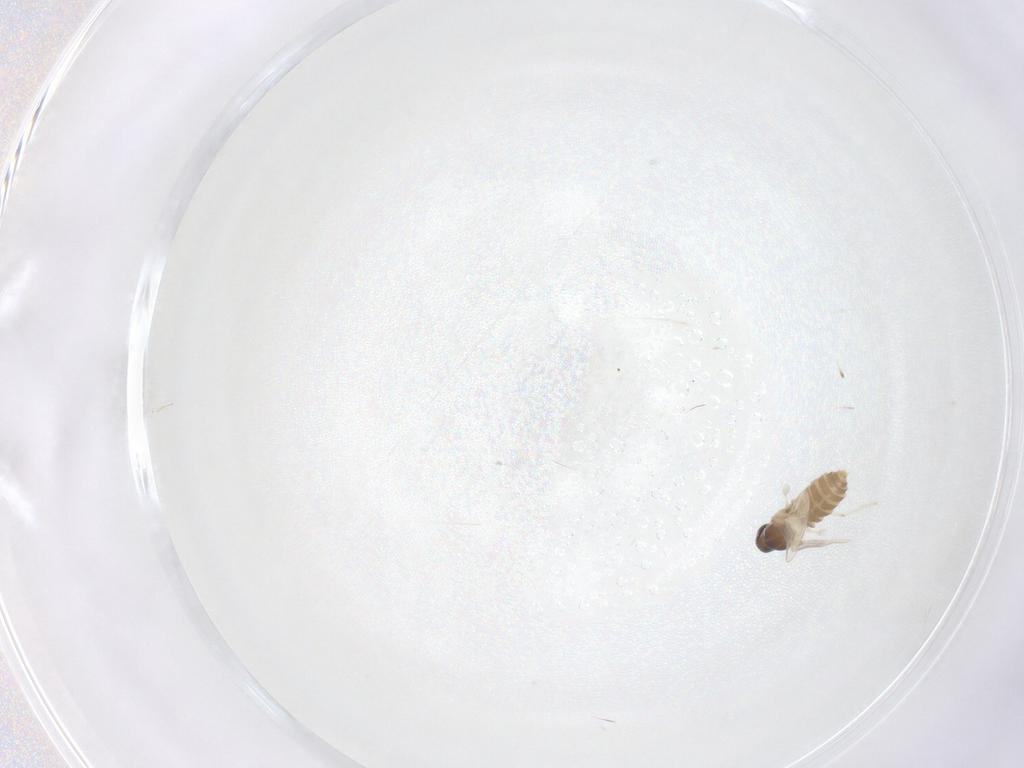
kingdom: Animalia
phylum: Arthropoda
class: Insecta
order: Diptera
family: Cecidomyiidae
